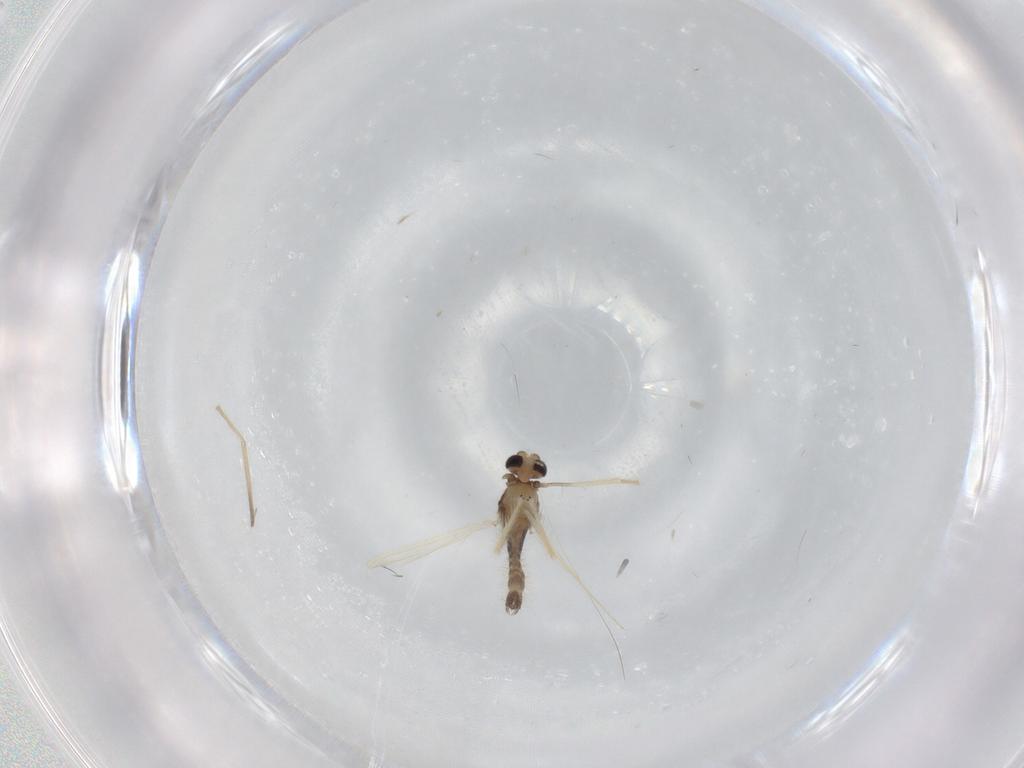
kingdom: Animalia
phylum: Arthropoda
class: Insecta
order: Diptera
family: Chironomidae
